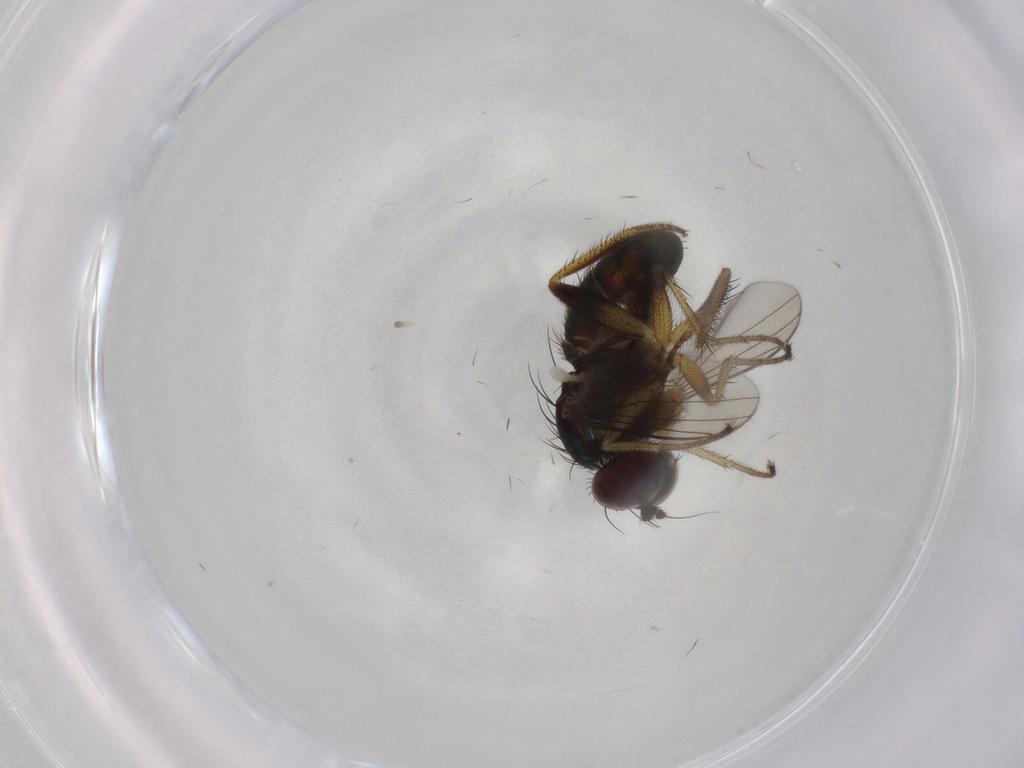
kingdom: Animalia
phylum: Arthropoda
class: Insecta
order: Diptera
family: Dolichopodidae
